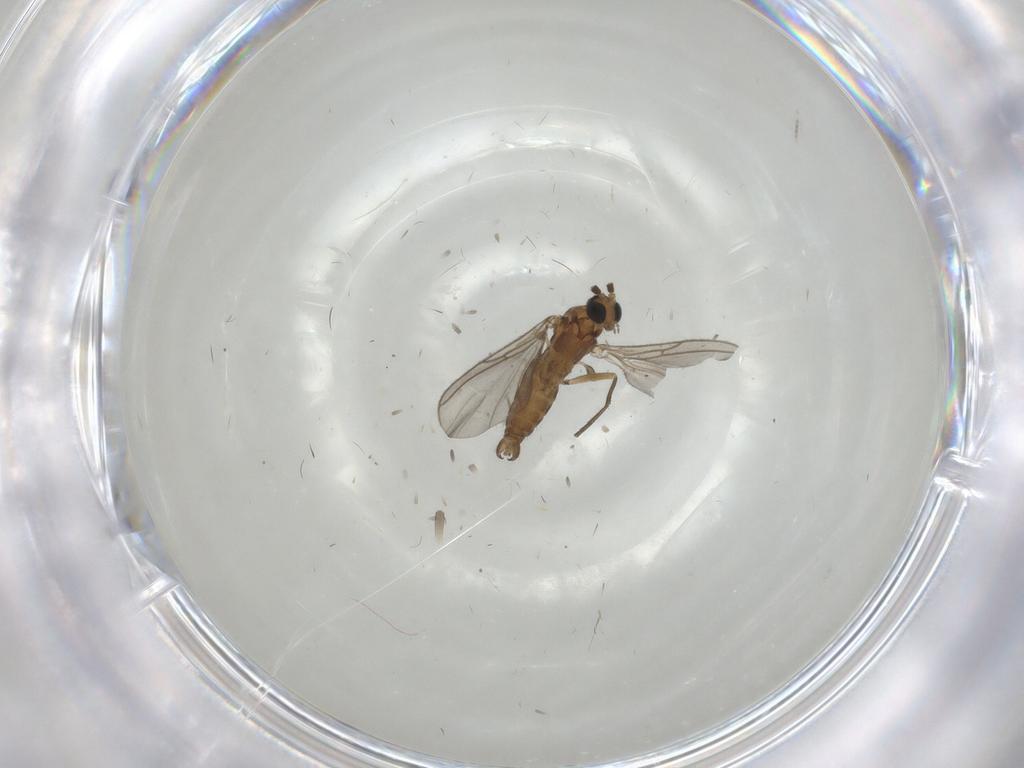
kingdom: Animalia
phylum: Arthropoda
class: Insecta
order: Diptera
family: Sciaridae
